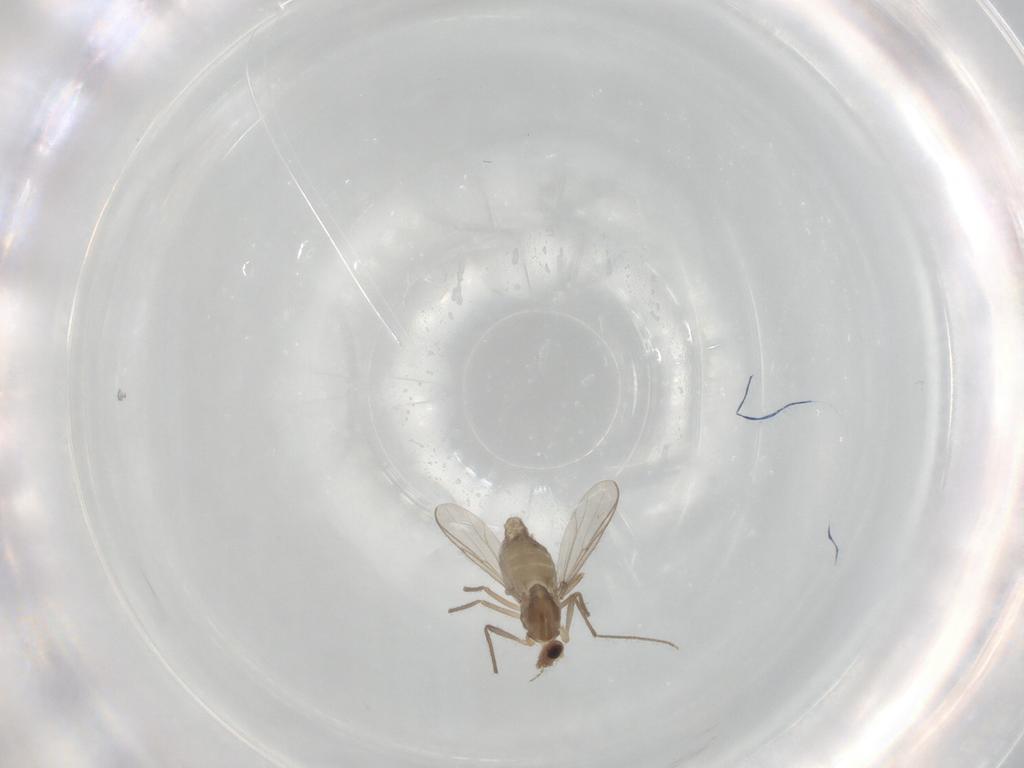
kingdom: Animalia
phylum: Arthropoda
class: Insecta
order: Diptera
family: Chironomidae
